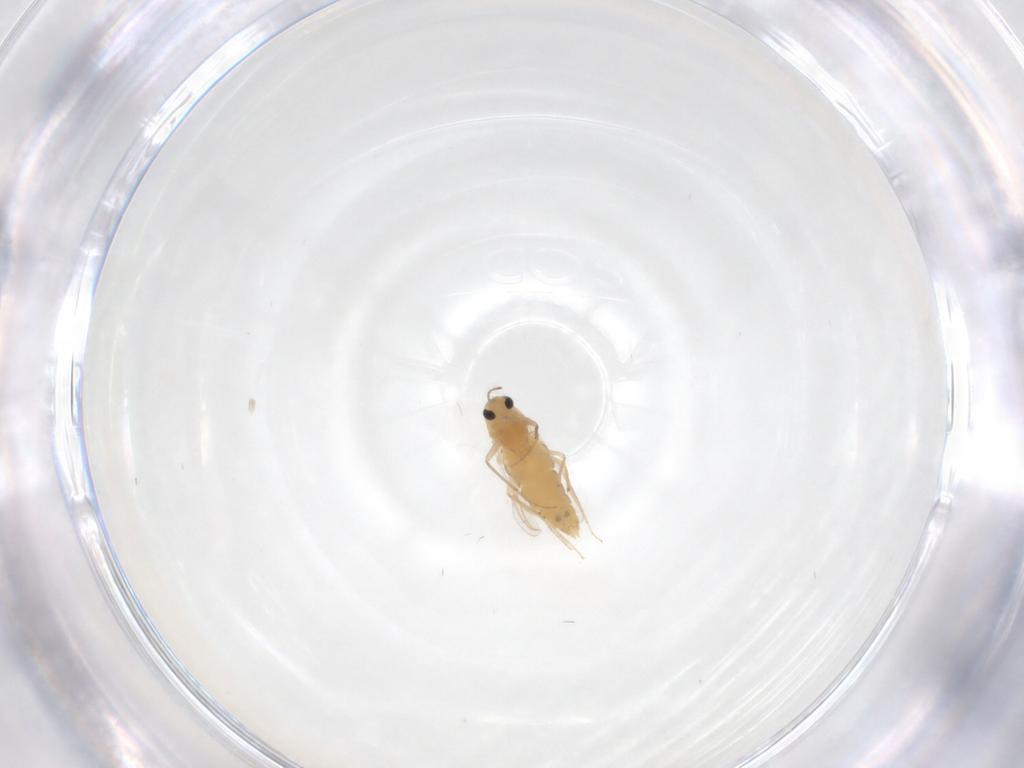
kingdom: Animalia
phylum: Arthropoda
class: Insecta
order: Diptera
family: Chironomidae
